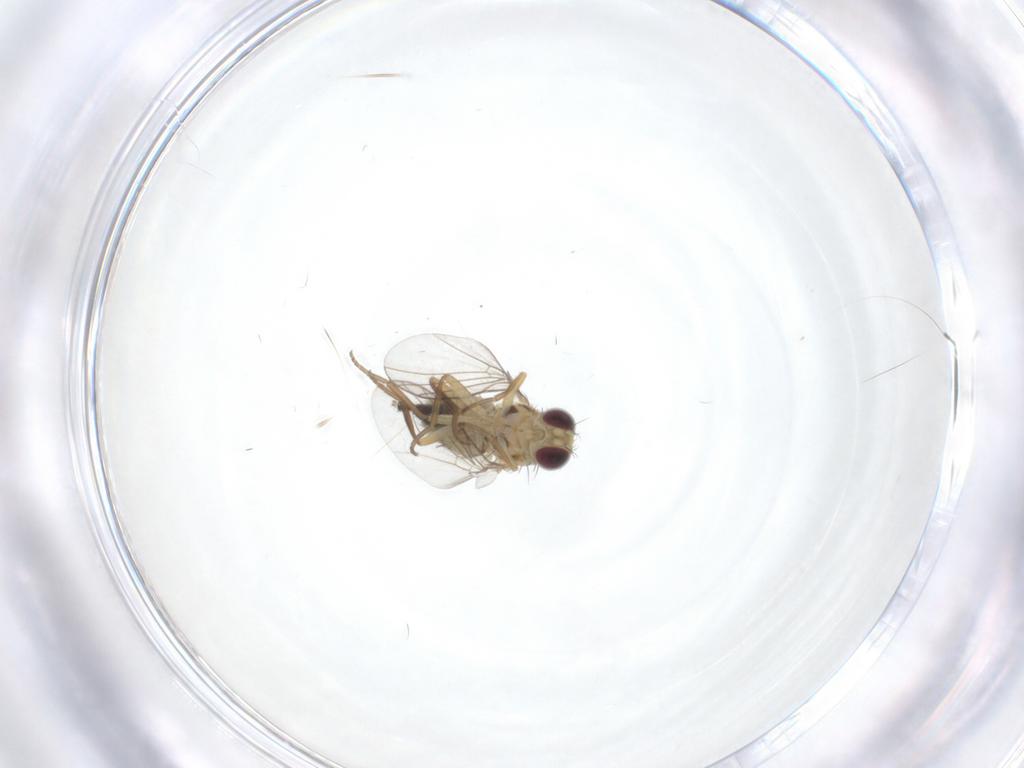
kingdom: Animalia
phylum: Arthropoda
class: Insecta
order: Diptera
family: Agromyzidae
